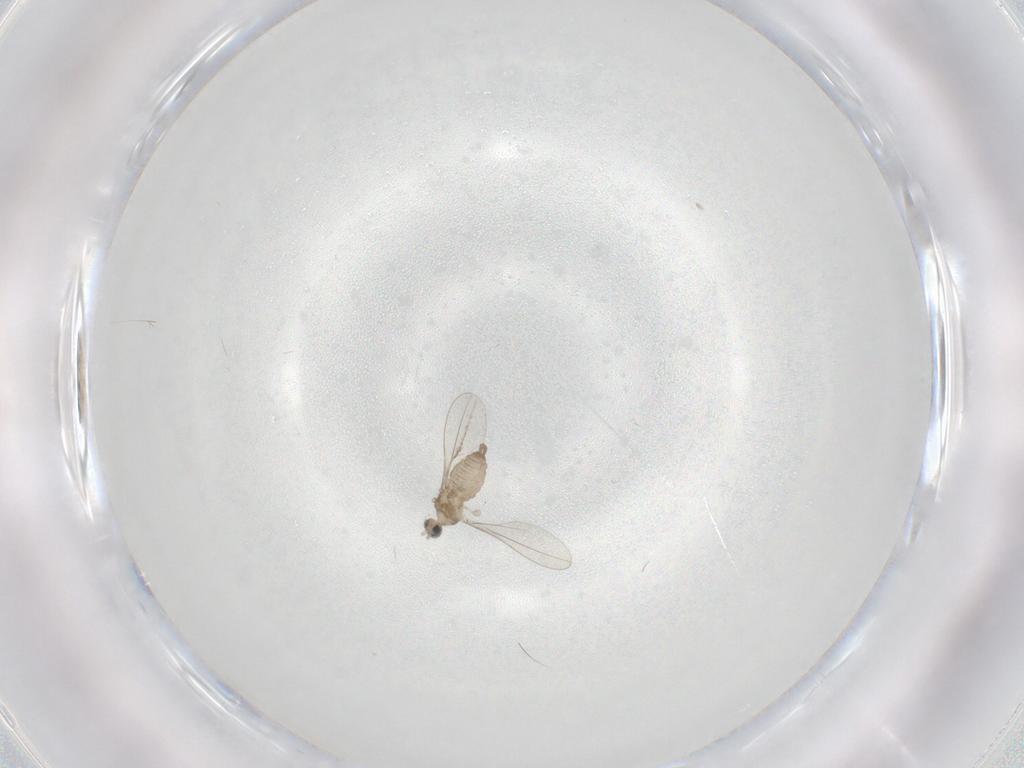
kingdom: Animalia
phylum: Arthropoda
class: Insecta
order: Diptera
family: Cecidomyiidae
